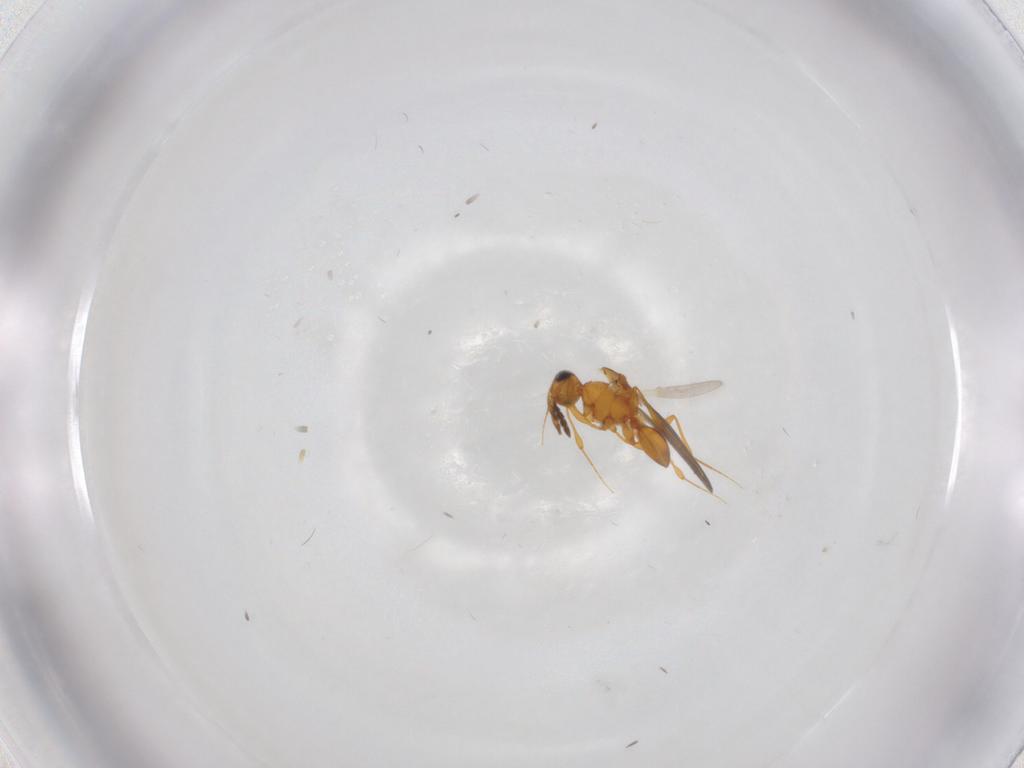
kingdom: Animalia
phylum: Arthropoda
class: Insecta
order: Hymenoptera
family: Platygastridae
